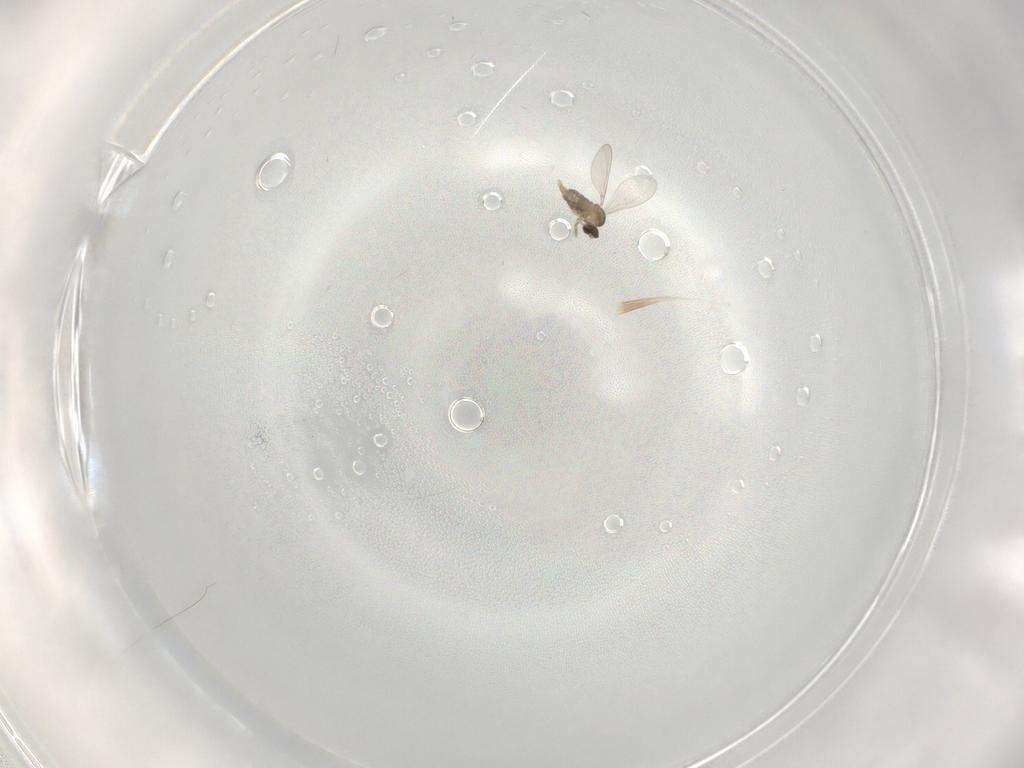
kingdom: Animalia
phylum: Arthropoda
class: Insecta
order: Diptera
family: Cecidomyiidae
